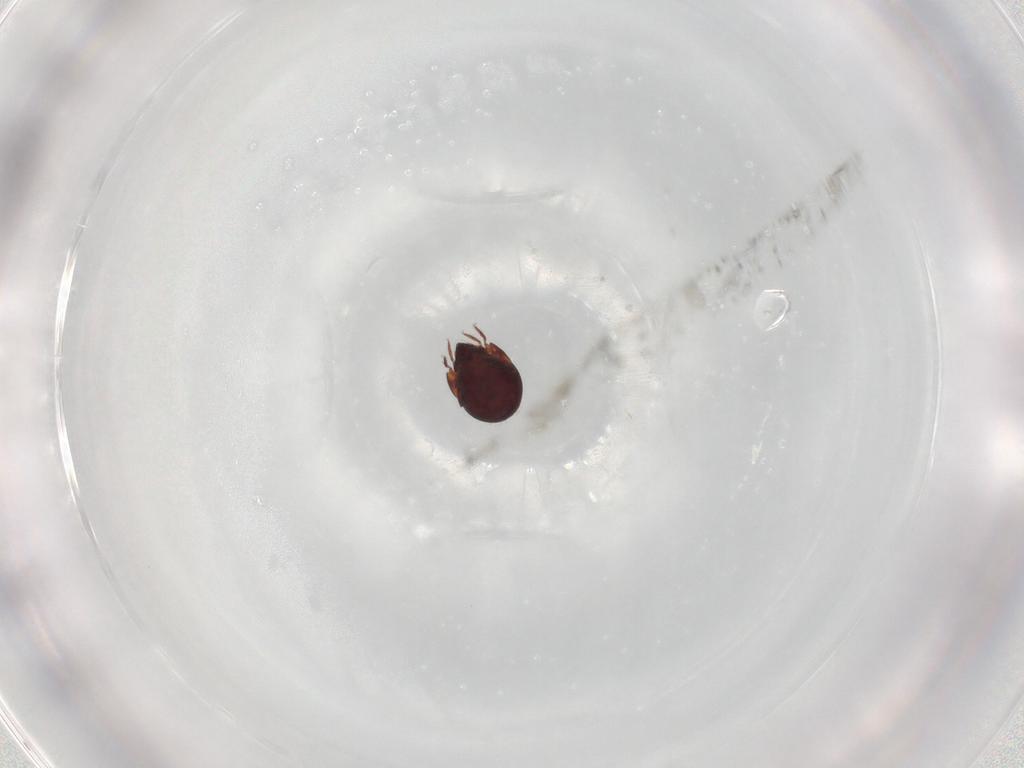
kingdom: Animalia
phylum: Arthropoda
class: Arachnida
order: Sarcoptiformes
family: Humerobatidae
